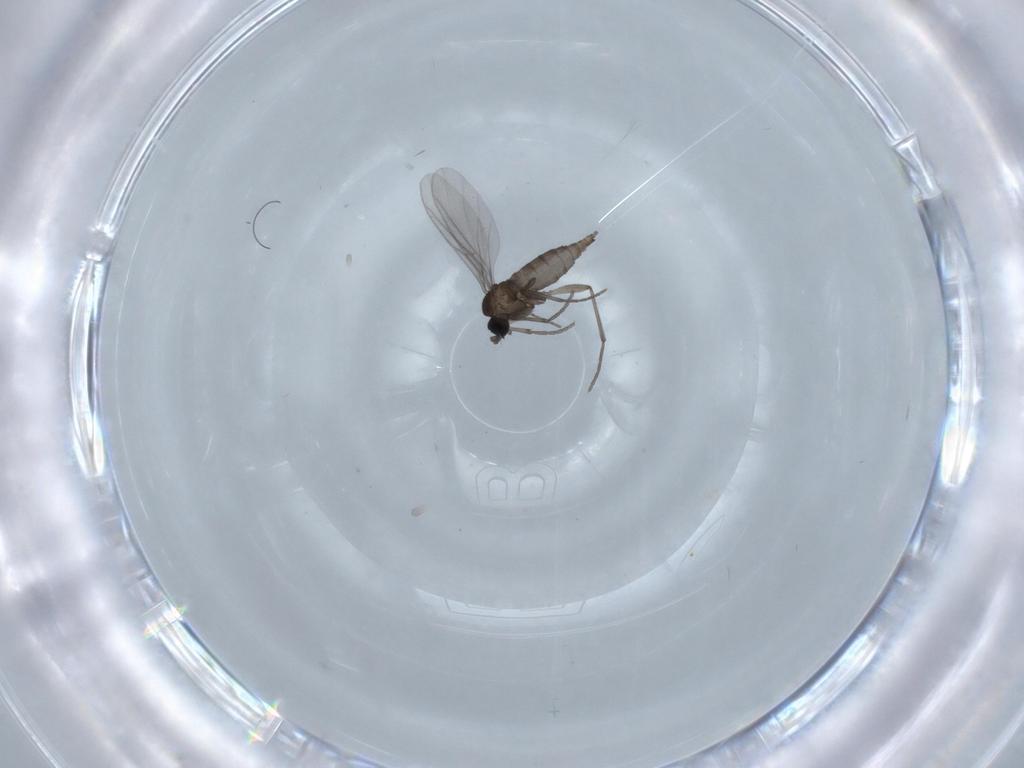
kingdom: Animalia
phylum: Arthropoda
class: Insecta
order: Diptera
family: Sciaridae
